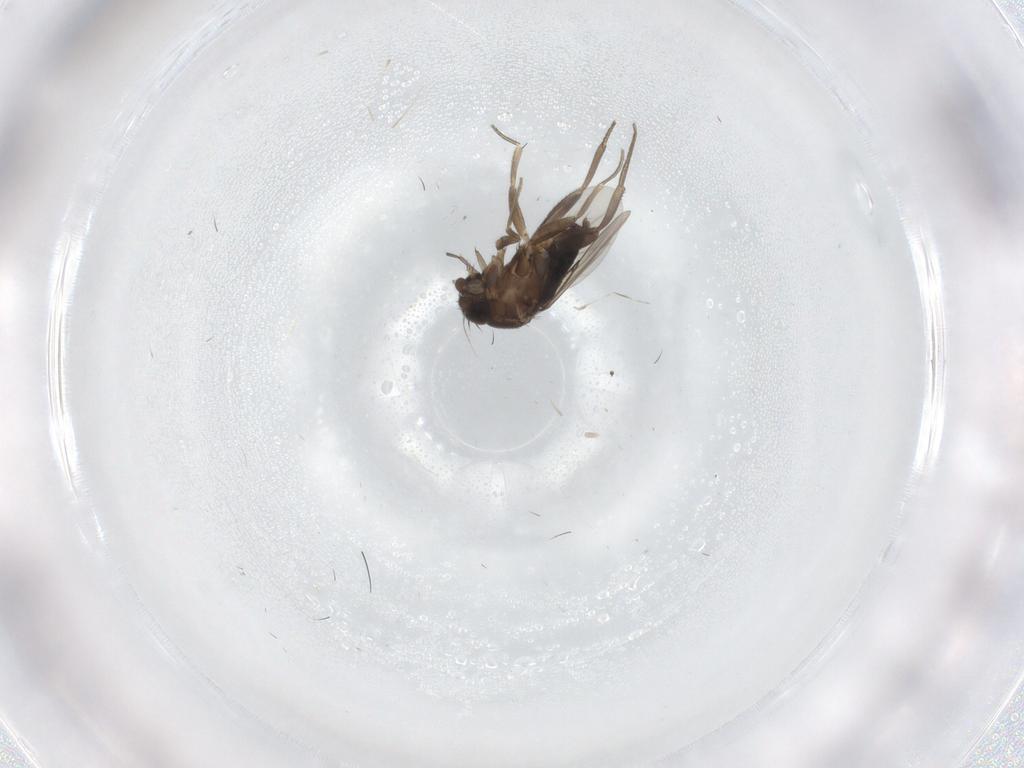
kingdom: Animalia
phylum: Arthropoda
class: Insecta
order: Diptera
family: Phoridae
